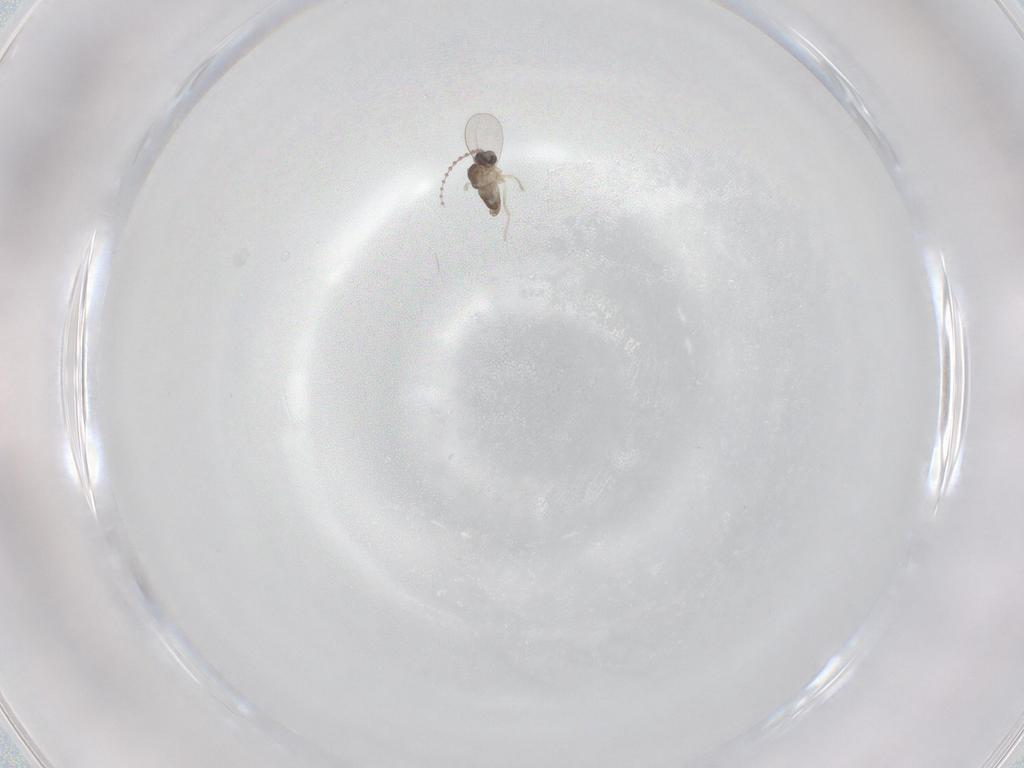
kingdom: Animalia
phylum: Arthropoda
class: Insecta
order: Diptera
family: Cecidomyiidae
